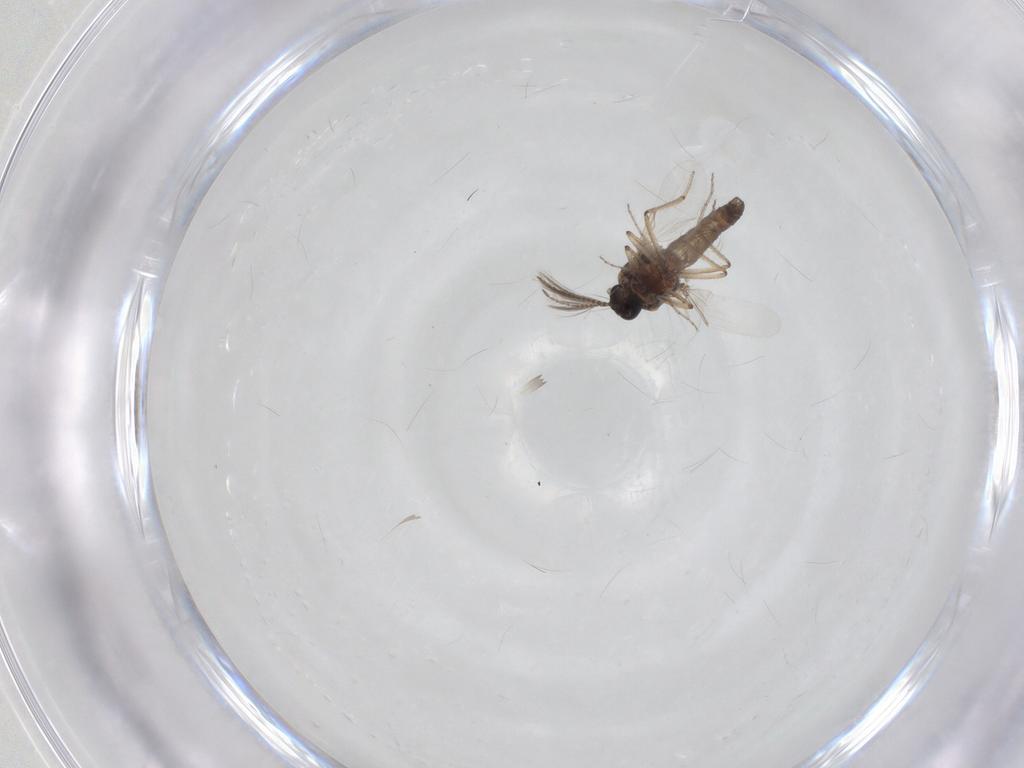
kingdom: Animalia
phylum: Arthropoda
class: Insecta
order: Diptera
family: Ceratopogonidae
